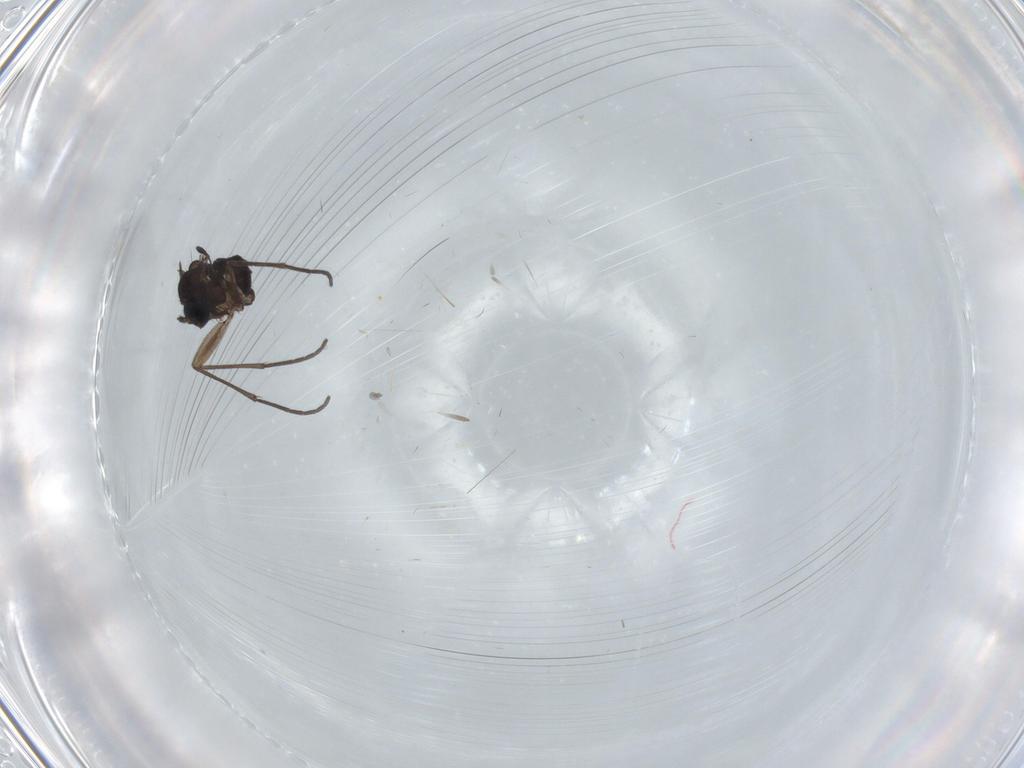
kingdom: Animalia
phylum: Arthropoda
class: Insecta
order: Diptera
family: Sciaridae
